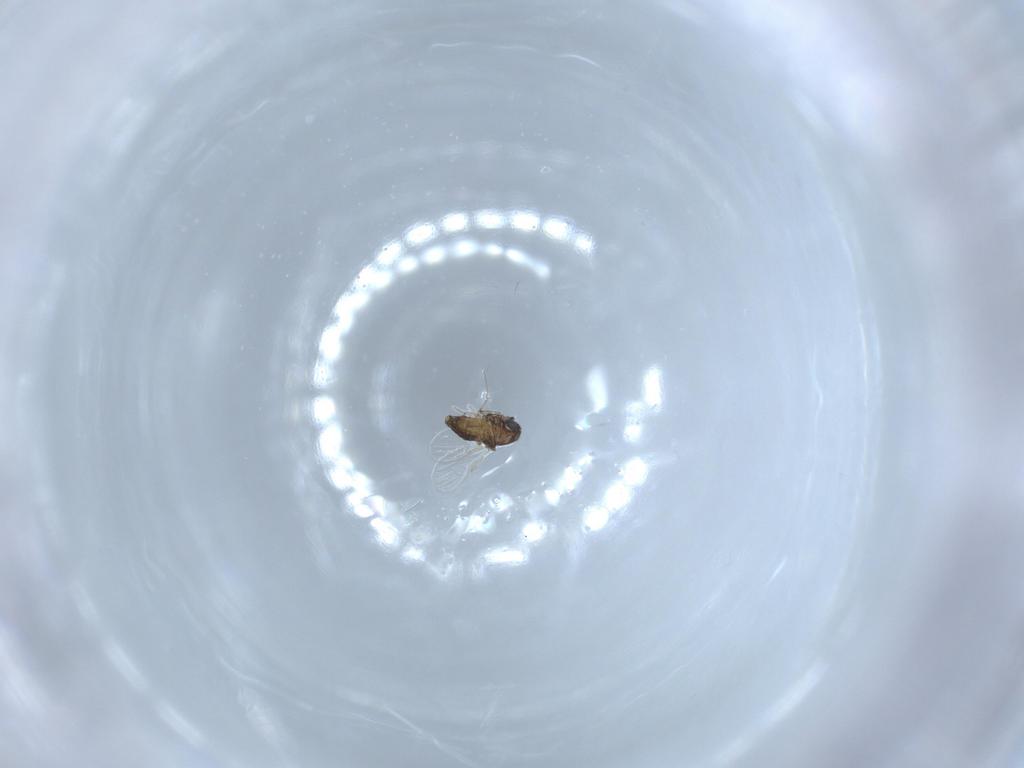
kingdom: Animalia
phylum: Arthropoda
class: Insecta
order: Diptera
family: Chironomidae
